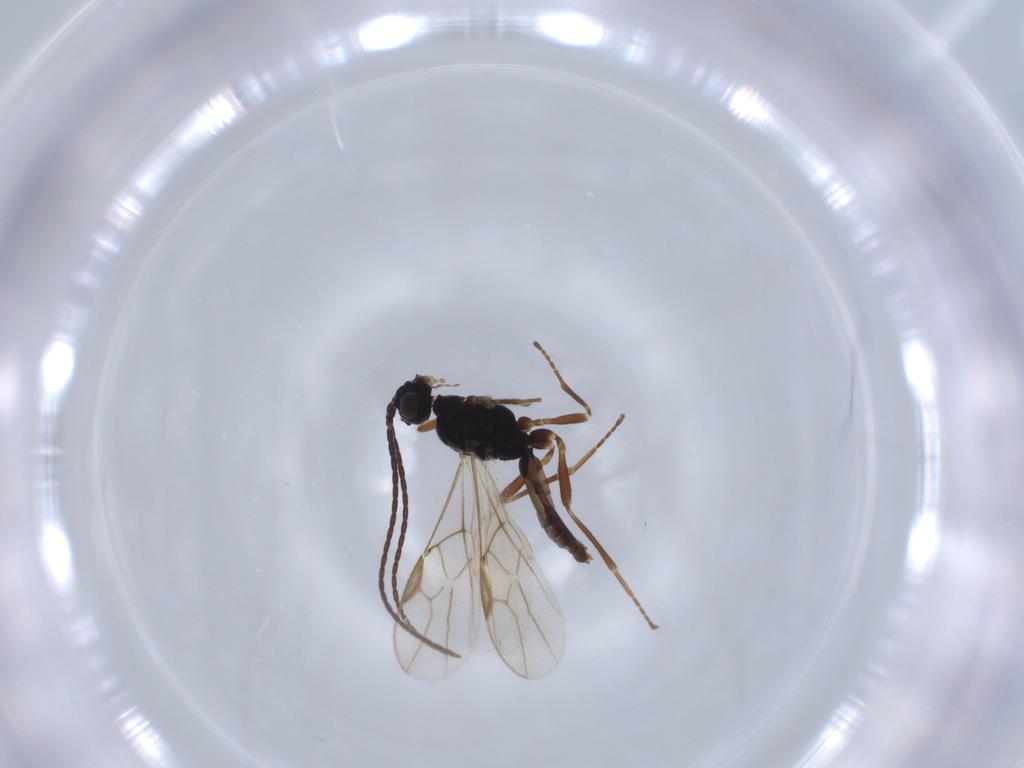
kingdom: Animalia
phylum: Arthropoda
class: Insecta
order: Hymenoptera
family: Braconidae
